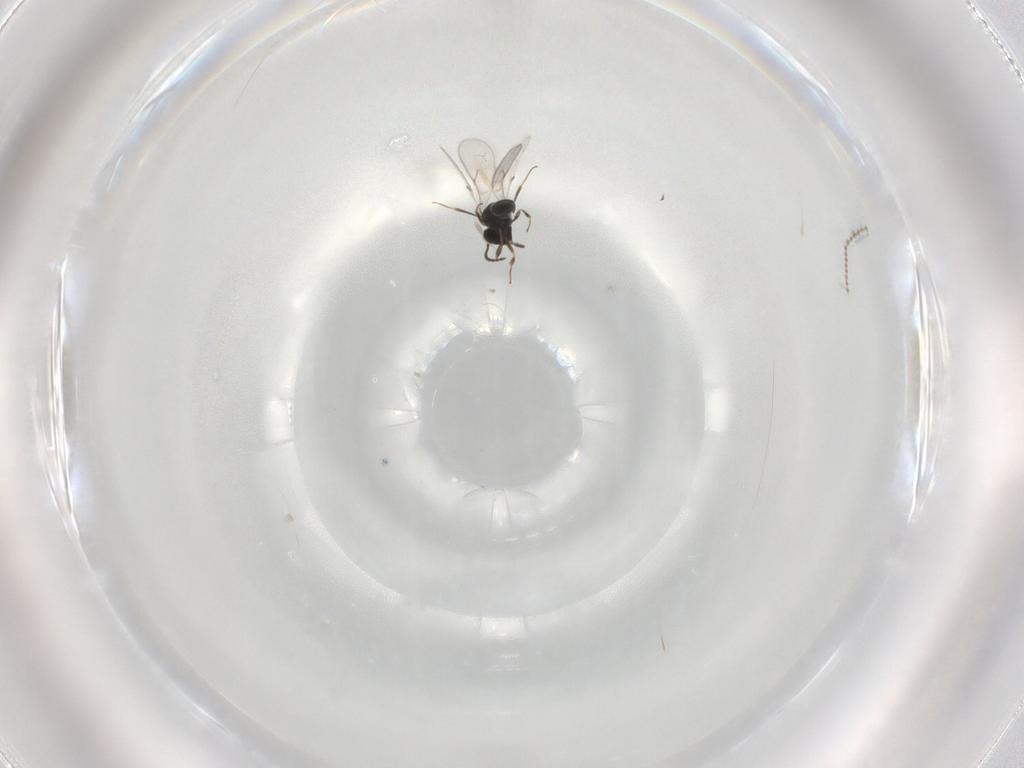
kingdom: Animalia
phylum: Arthropoda
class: Insecta
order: Hymenoptera
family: Scelionidae
